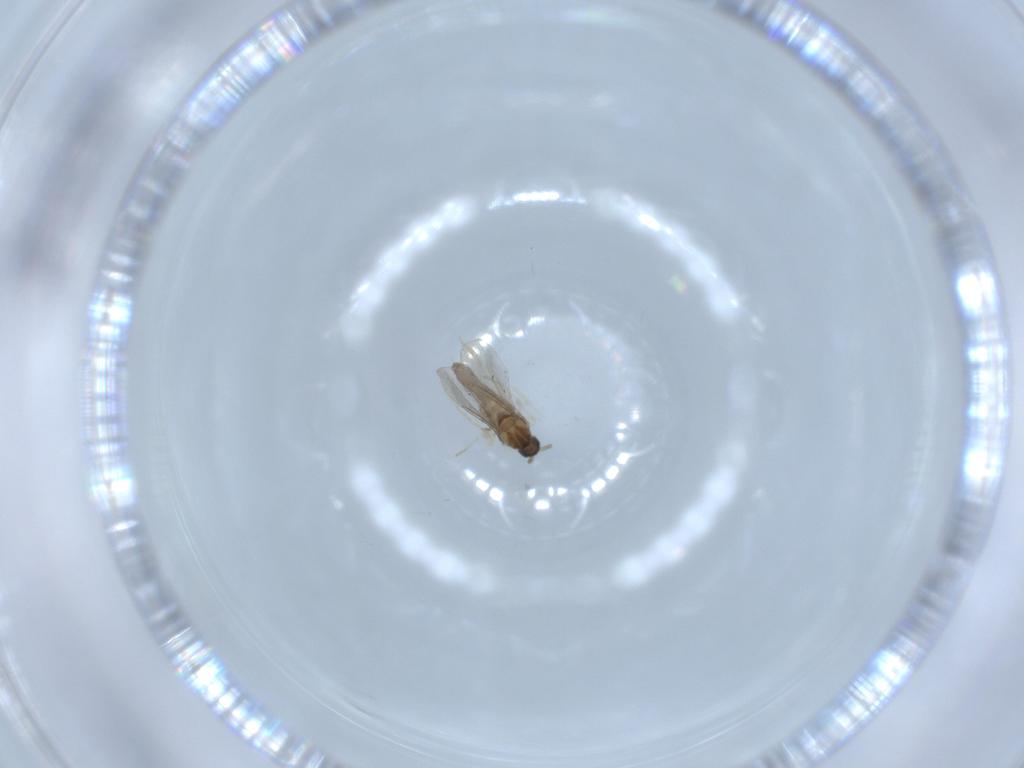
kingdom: Animalia
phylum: Arthropoda
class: Insecta
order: Diptera
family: Cecidomyiidae
